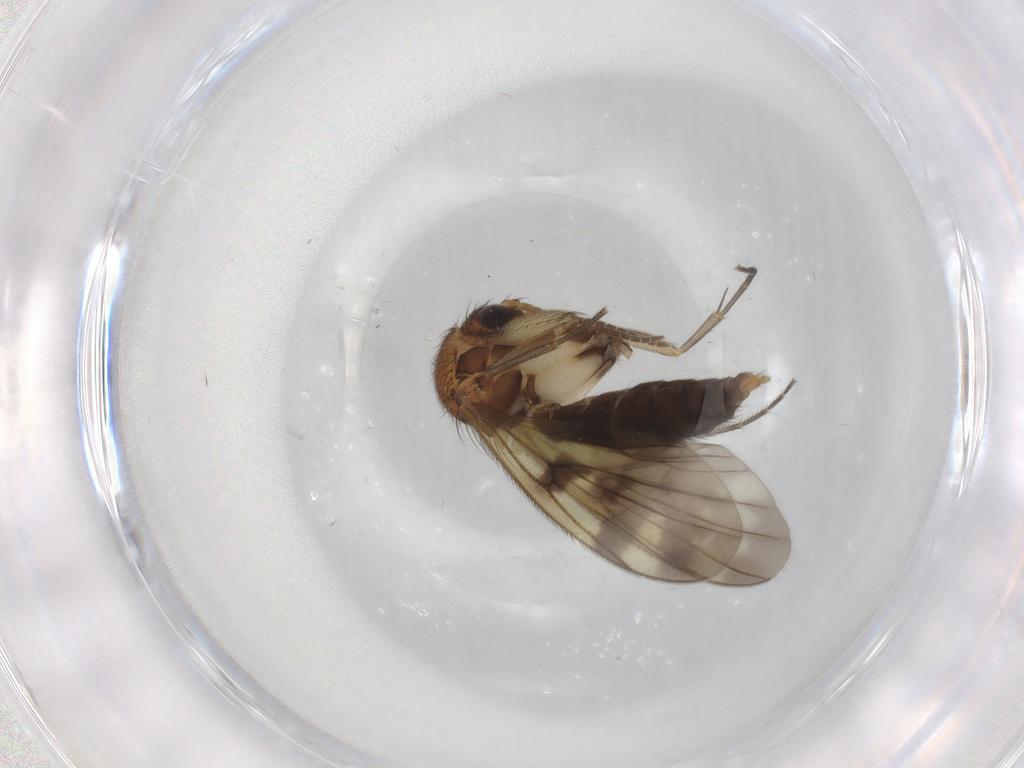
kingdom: Animalia
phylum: Arthropoda
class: Insecta
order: Diptera
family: Mycetophilidae
